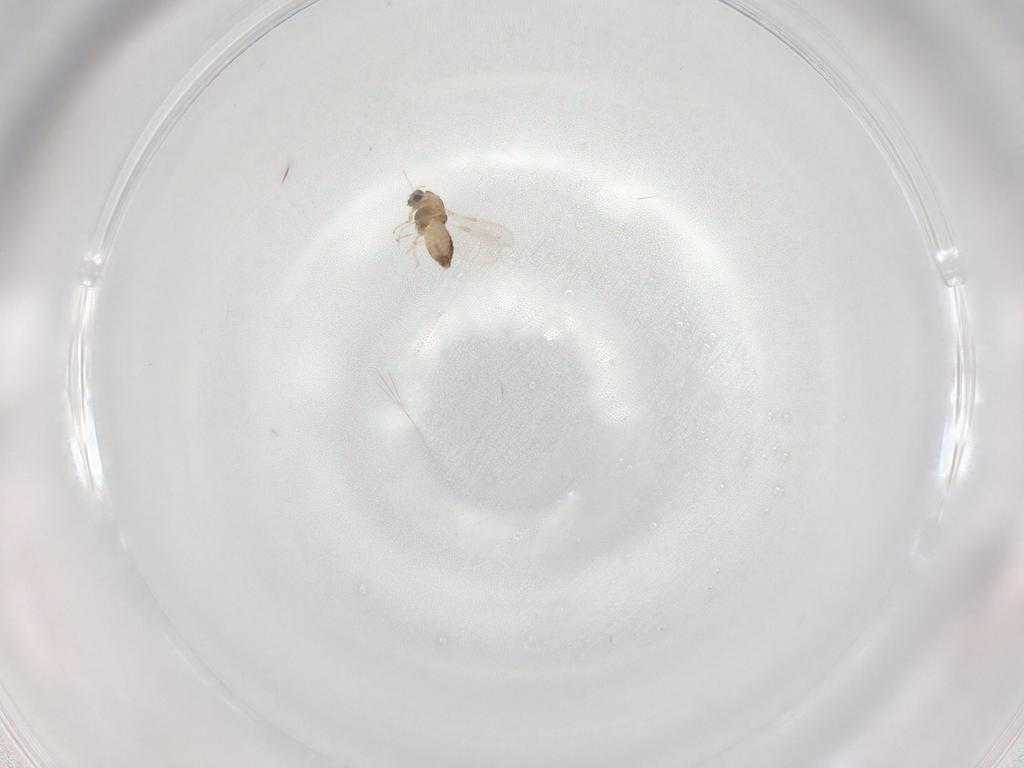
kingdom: Animalia
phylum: Arthropoda
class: Insecta
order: Diptera
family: Chironomidae
